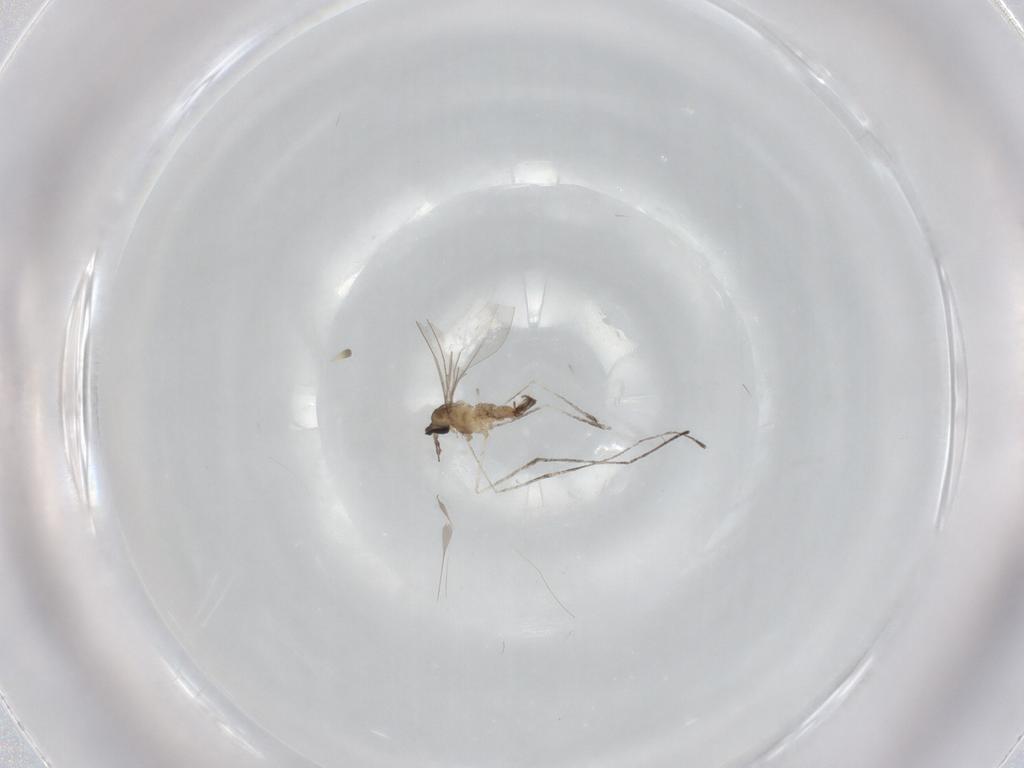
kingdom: Animalia
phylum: Arthropoda
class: Insecta
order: Diptera
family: Cecidomyiidae
